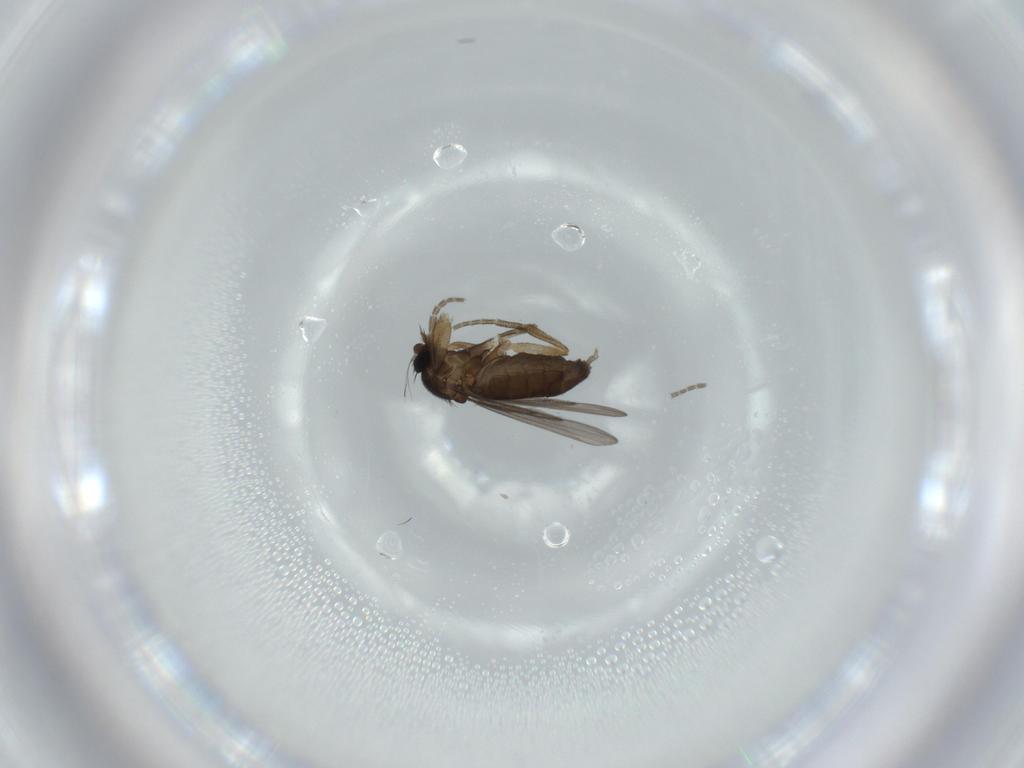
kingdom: Animalia
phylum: Arthropoda
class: Insecta
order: Diptera
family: Phoridae
